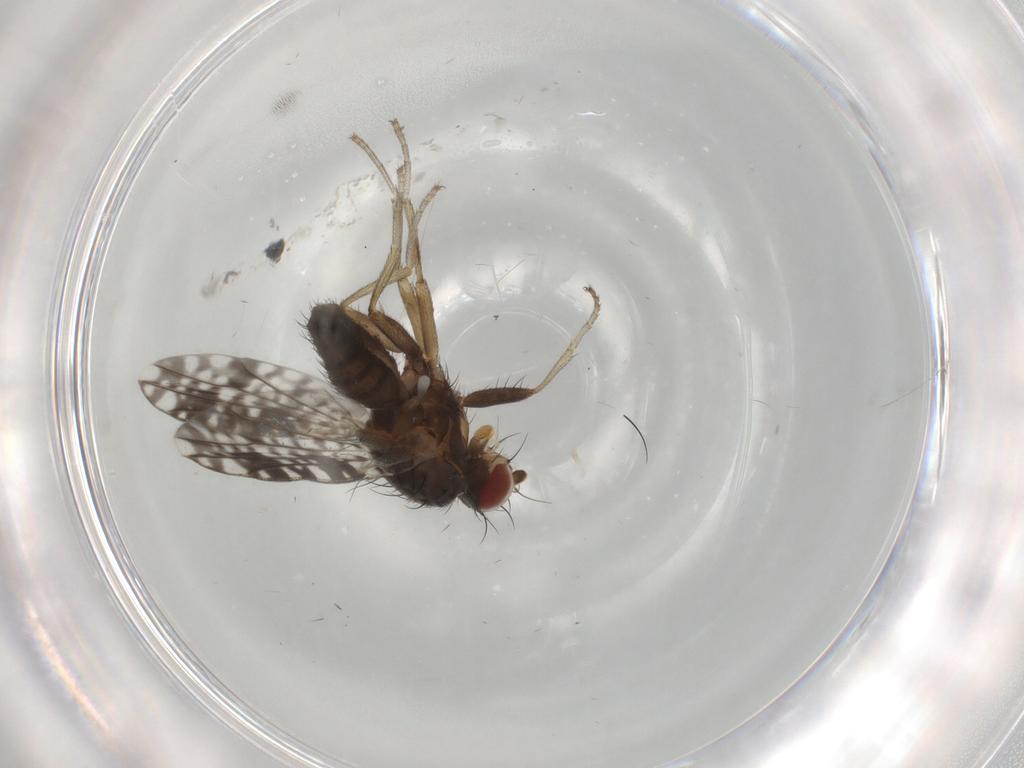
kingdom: Animalia
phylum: Arthropoda
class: Insecta
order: Diptera
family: Tephritidae
